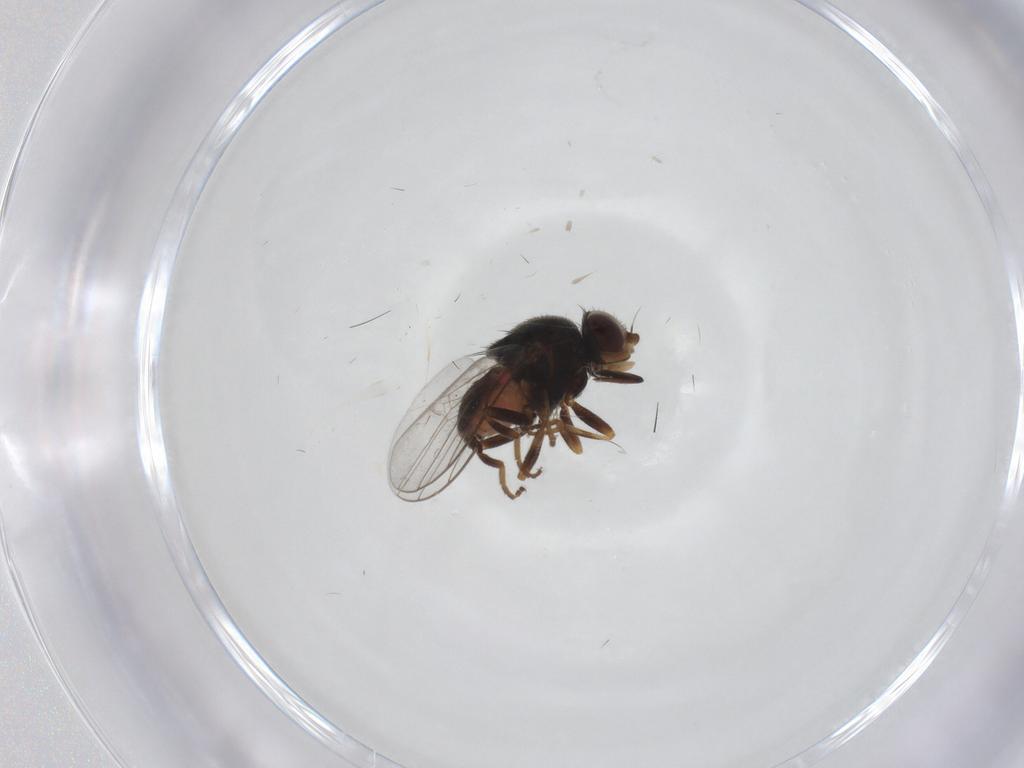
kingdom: Animalia
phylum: Arthropoda
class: Insecta
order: Diptera
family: Chloropidae
